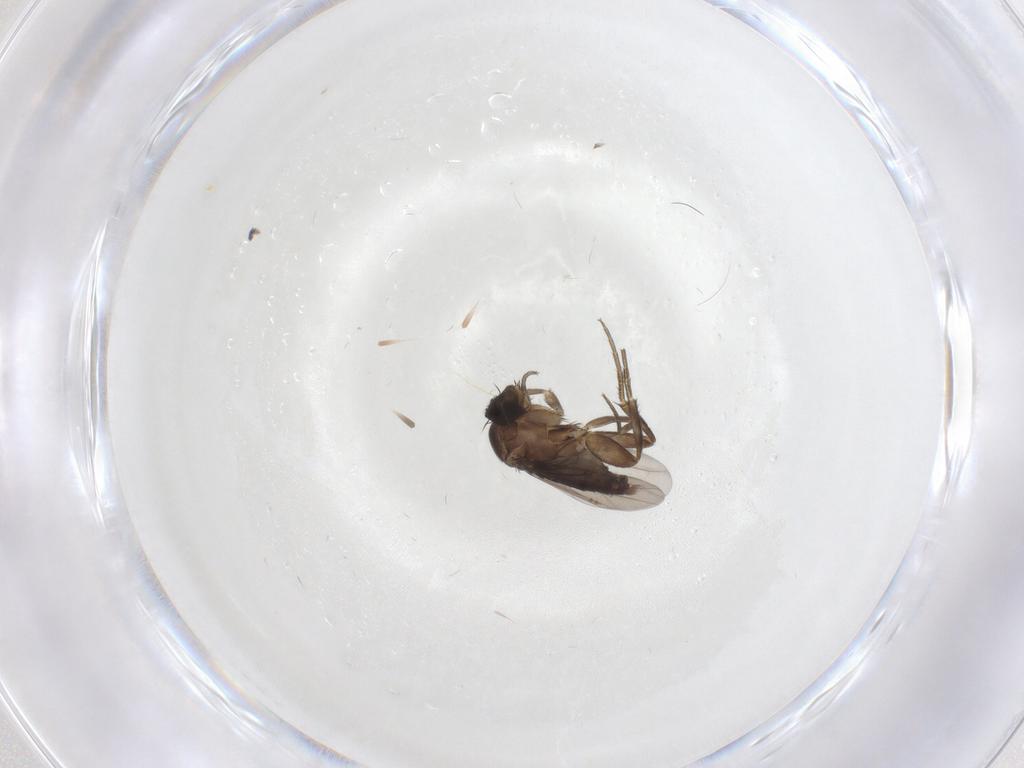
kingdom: Animalia
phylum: Arthropoda
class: Insecta
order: Diptera
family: Phoridae
